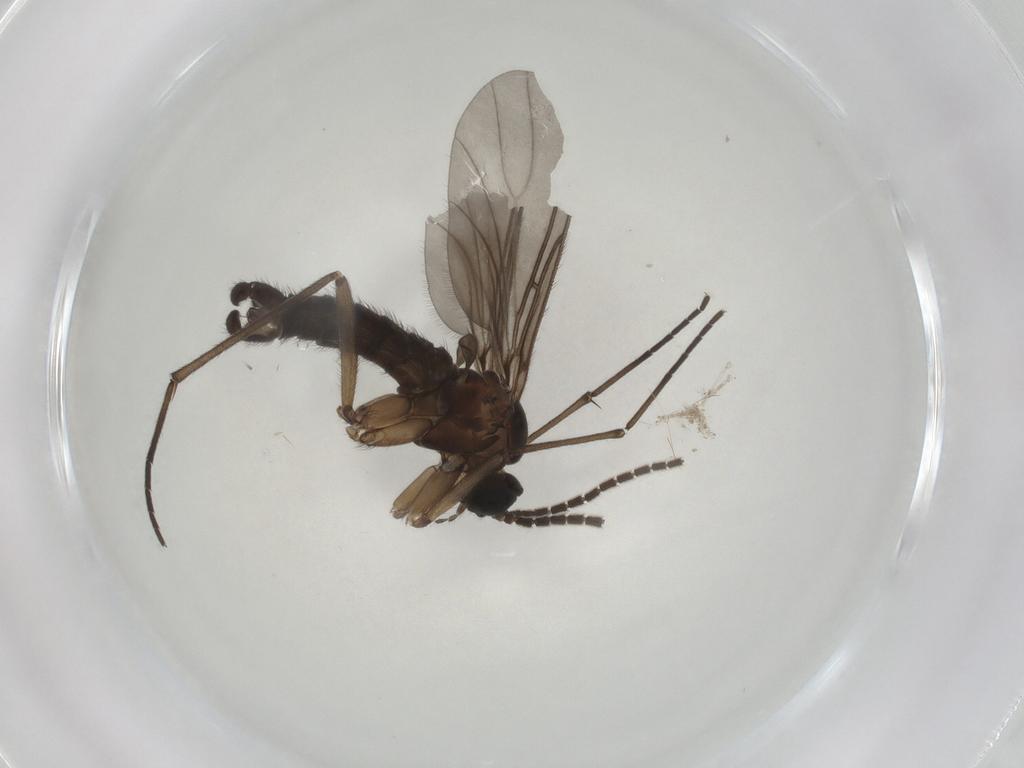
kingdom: Animalia
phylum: Arthropoda
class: Insecta
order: Diptera
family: Sciaridae
